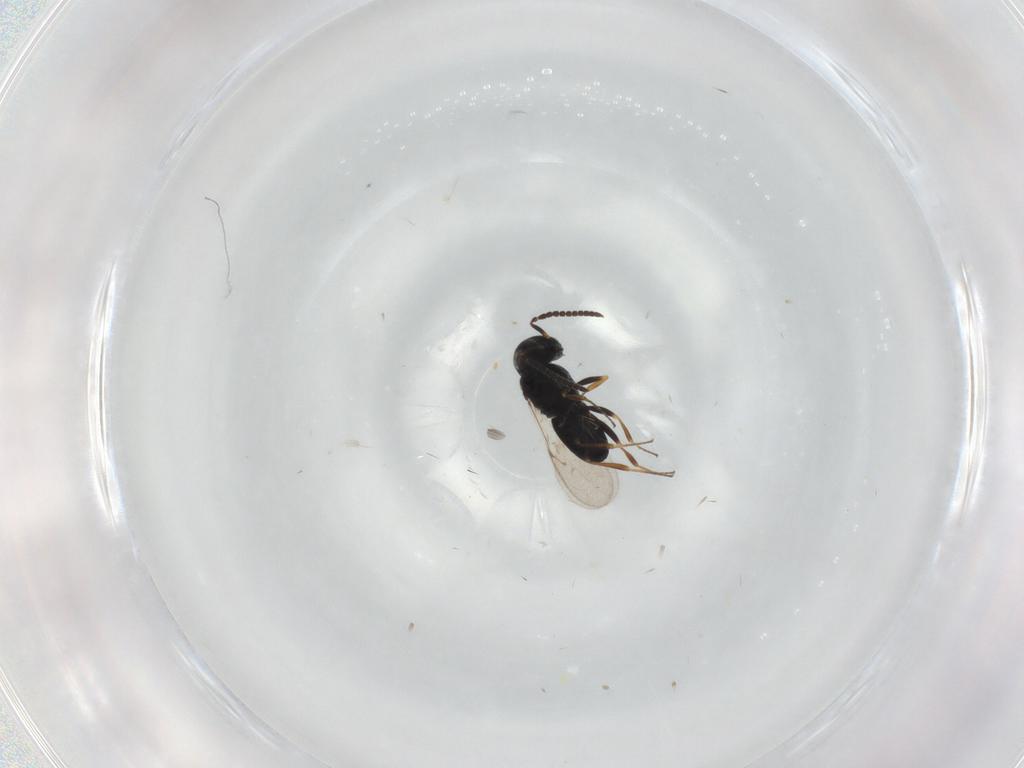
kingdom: Animalia
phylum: Arthropoda
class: Insecta
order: Hymenoptera
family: Scelionidae
